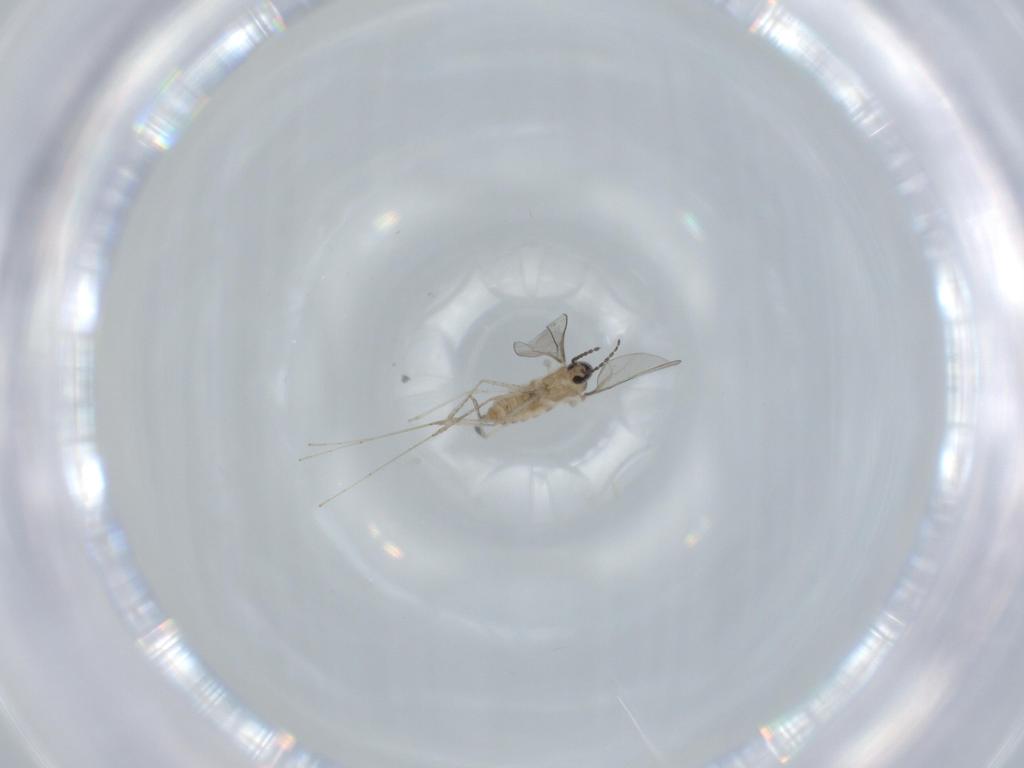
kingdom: Animalia
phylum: Arthropoda
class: Insecta
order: Diptera
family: Cecidomyiidae
